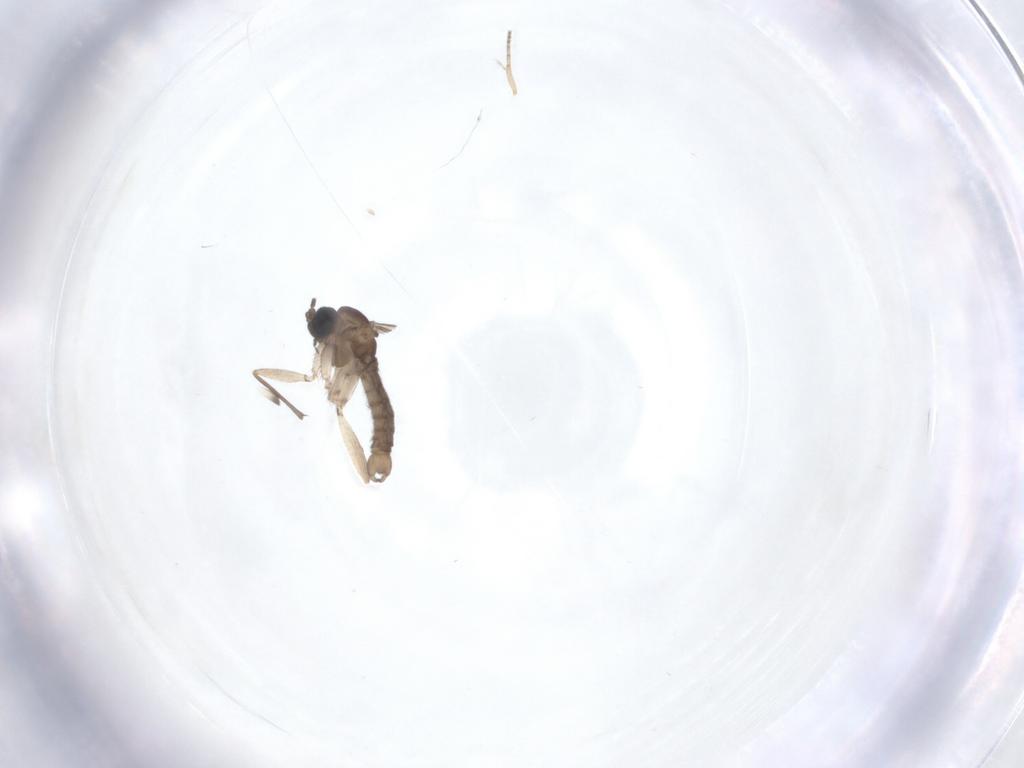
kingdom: Animalia
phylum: Arthropoda
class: Insecta
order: Diptera
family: Sciaridae
